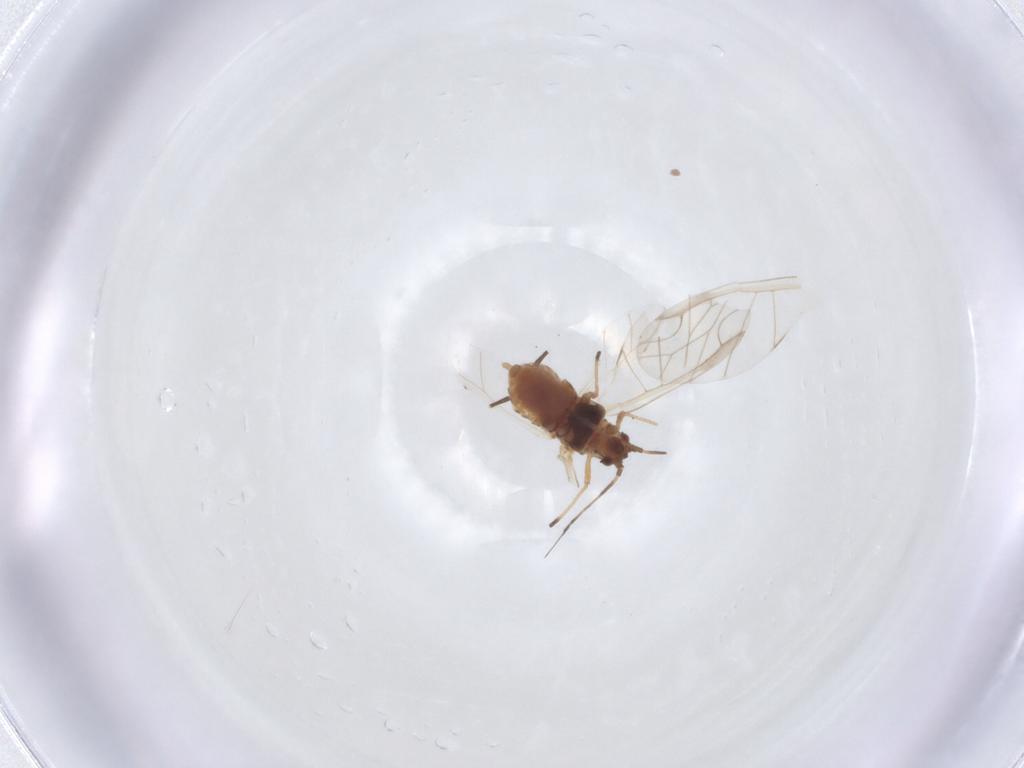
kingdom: Animalia
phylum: Arthropoda
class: Insecta
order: Hemiptera
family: Aphididae
